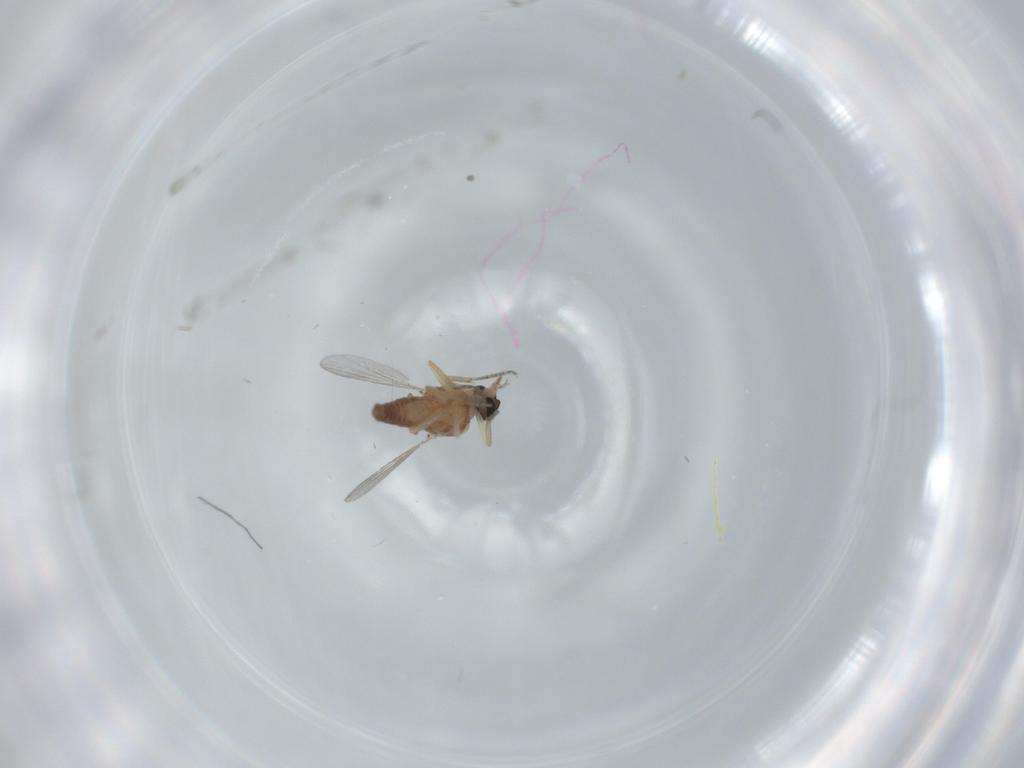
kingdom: Animalia
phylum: Arthropoda
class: Insecta
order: Diptera
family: Ceratopogonidae
